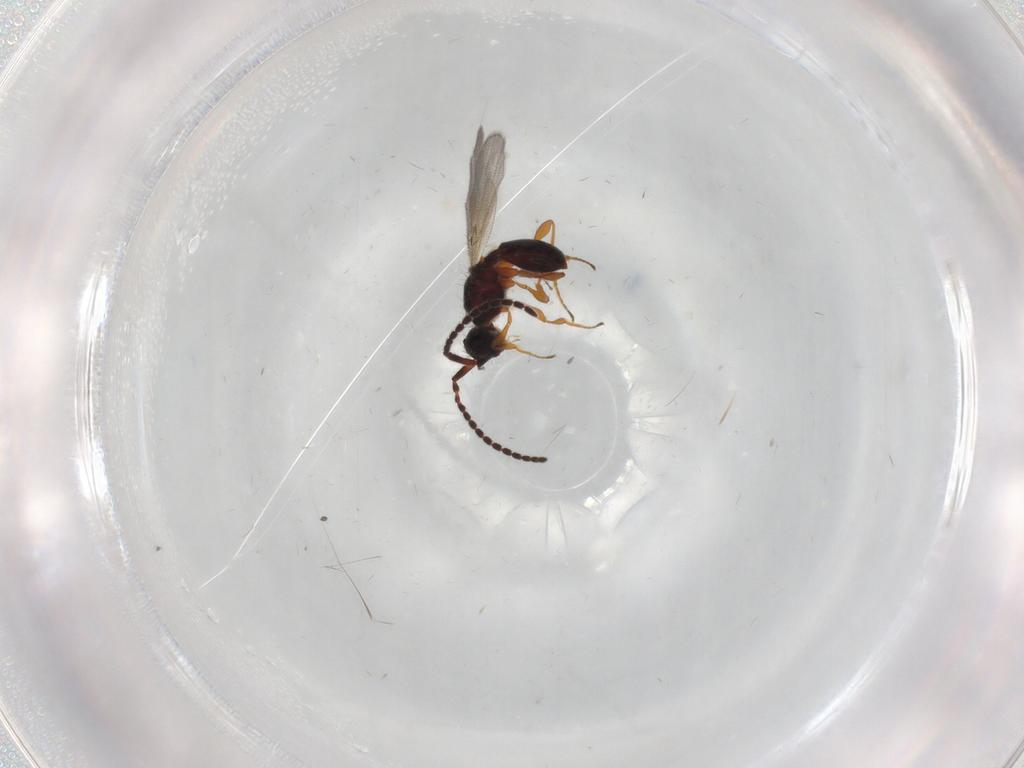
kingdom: Animalia
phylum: Arthropoda
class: Insecta
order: Hymenoptera
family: Diapriidae
